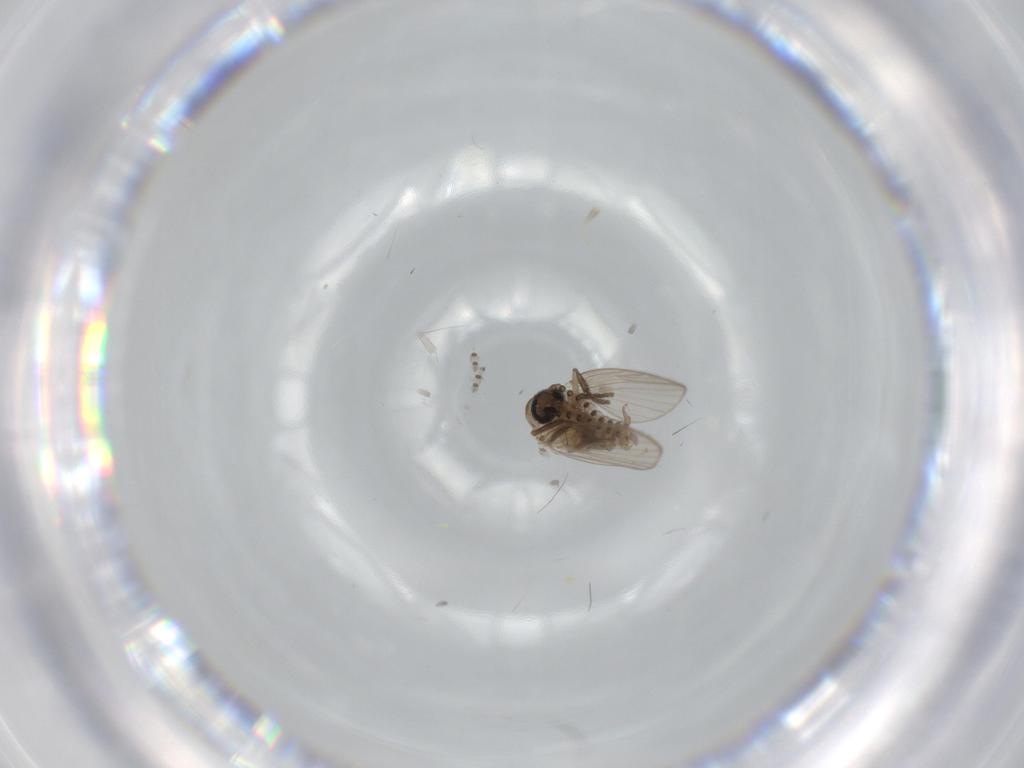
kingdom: Animalia
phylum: Arthropoda
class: Insecta
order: Diptera
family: Psychodidae
